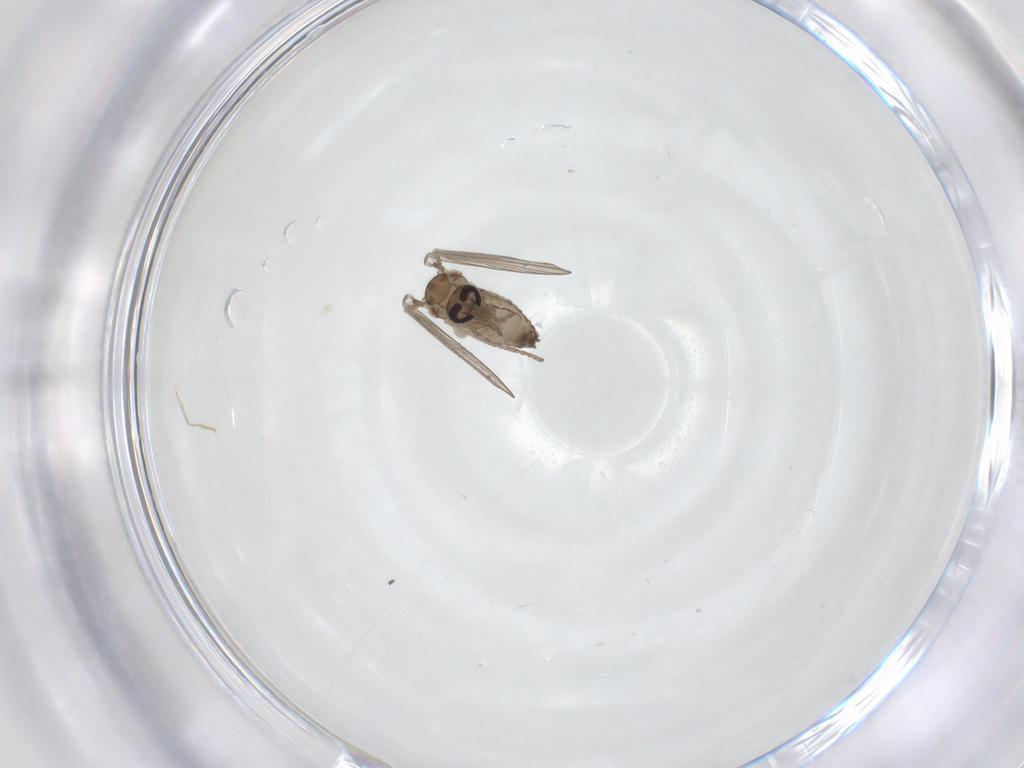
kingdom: Animalia
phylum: Arthropoda
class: Insecta
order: Diptera
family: Psychodidae
